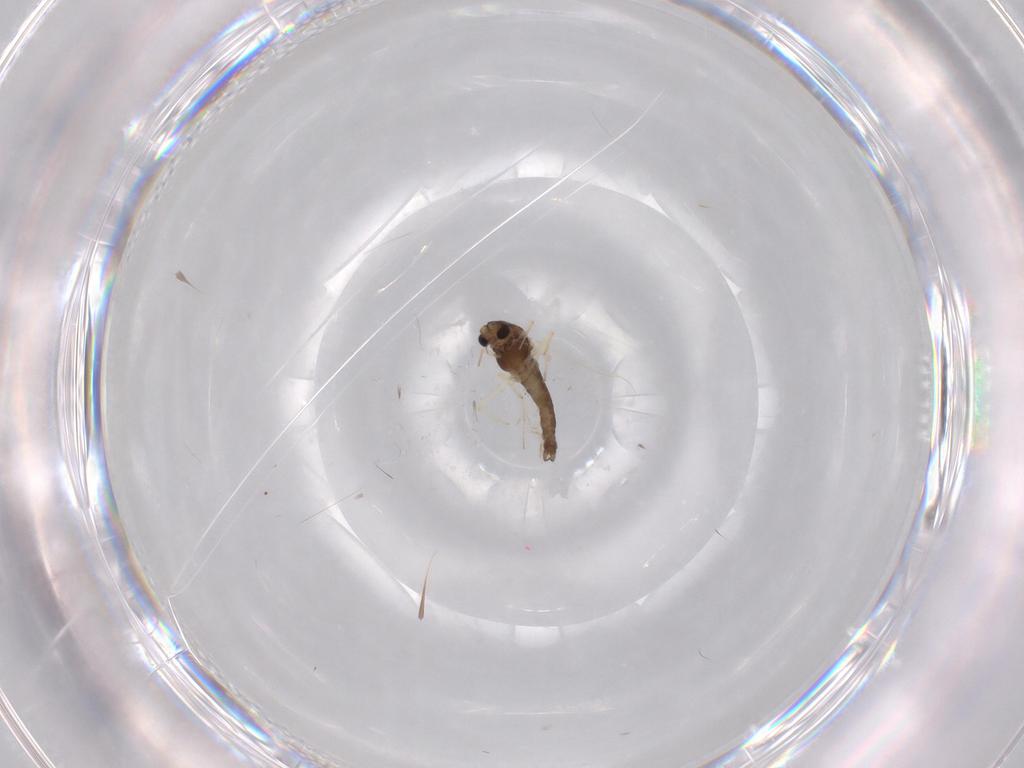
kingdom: Animalia
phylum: Arthropoda
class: Insecta
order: Diptera
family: Chironomidae
